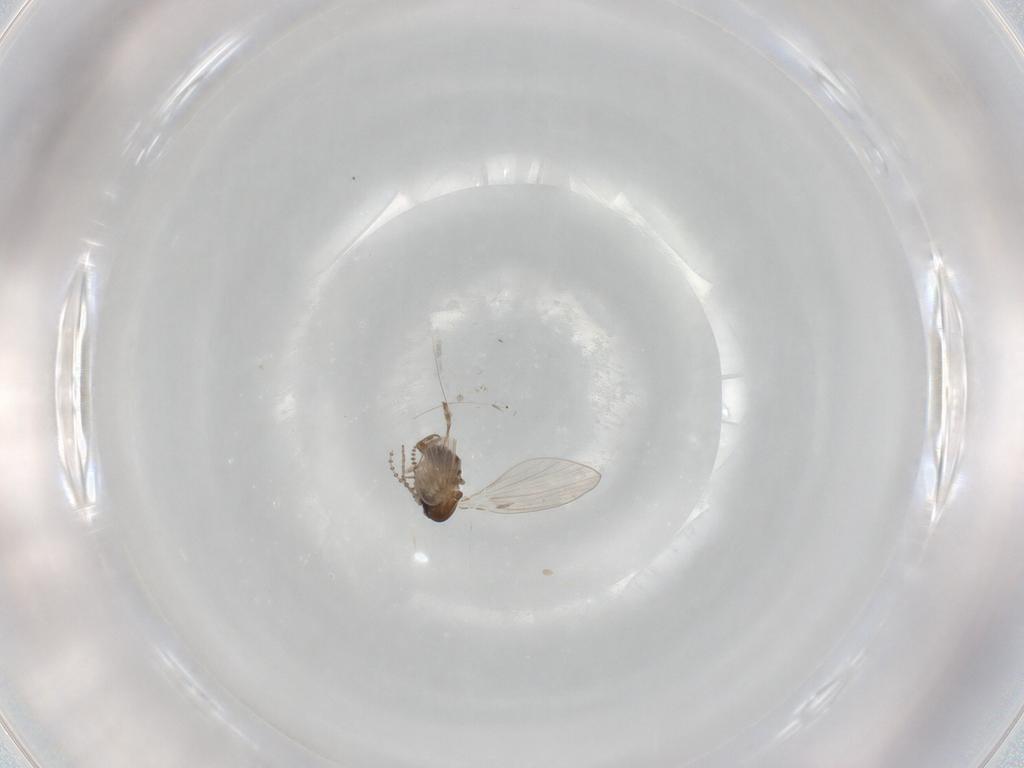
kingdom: Animalia
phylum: Arthropoda
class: Insecta
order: Diptera
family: Psychodidae
